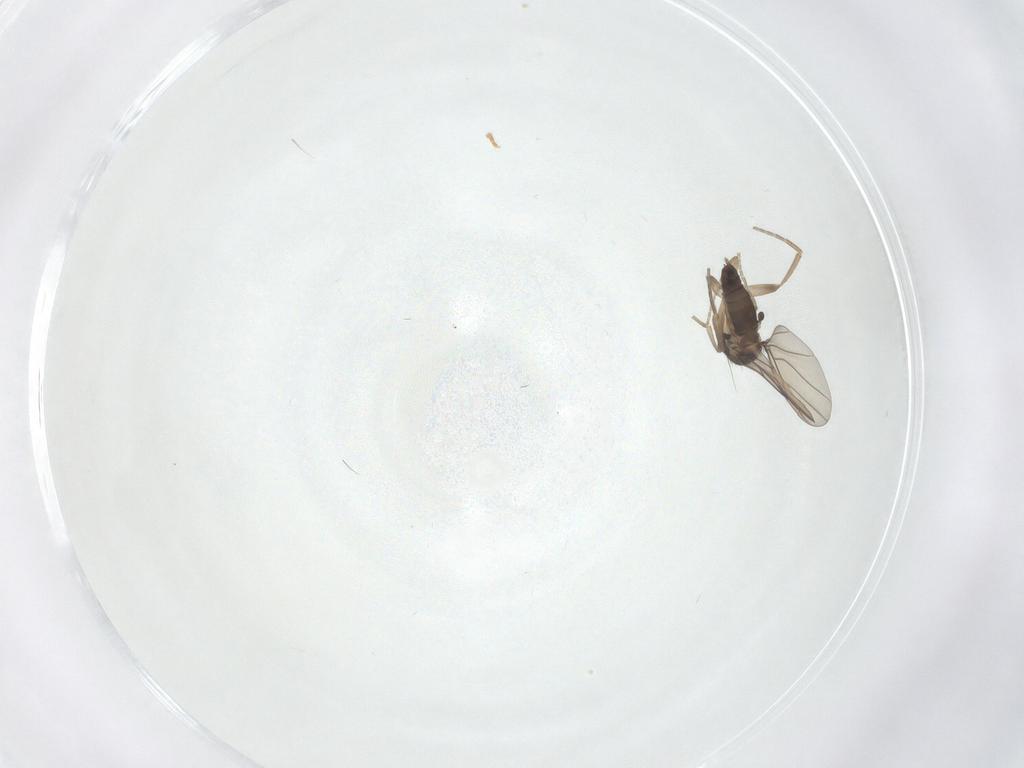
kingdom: Animalia
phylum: Arthropoda
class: Insecta
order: Diptera
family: Phoridae
